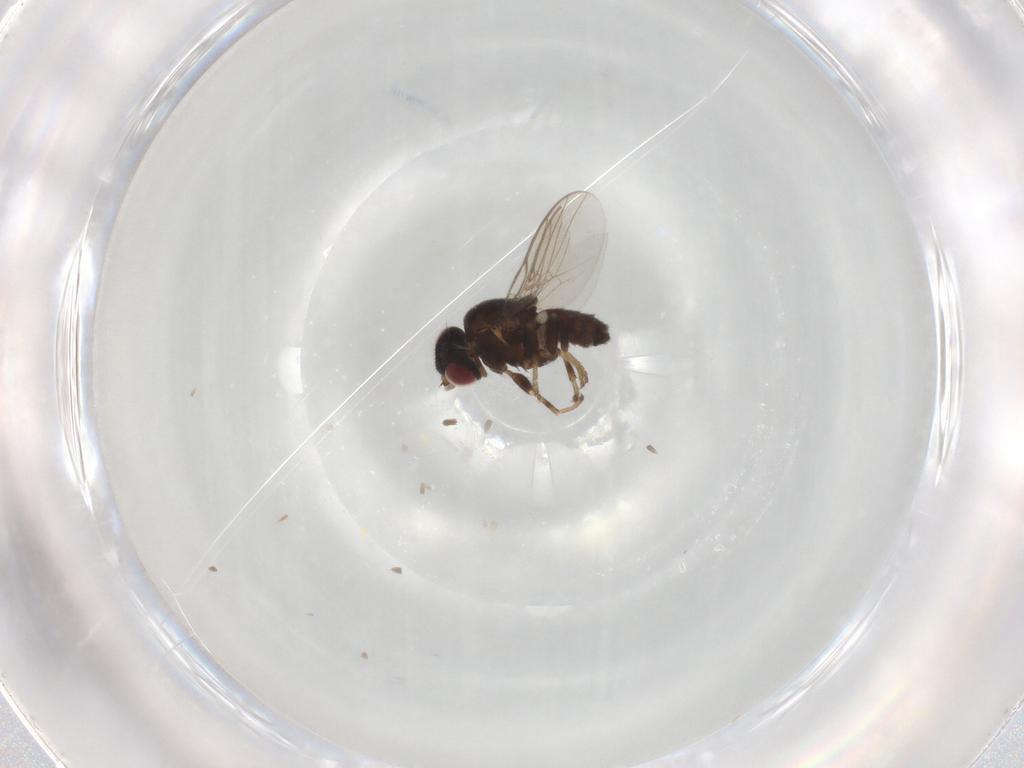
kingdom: Animalia
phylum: Arthropoda
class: Insecta
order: Diptera
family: Chloropidae
